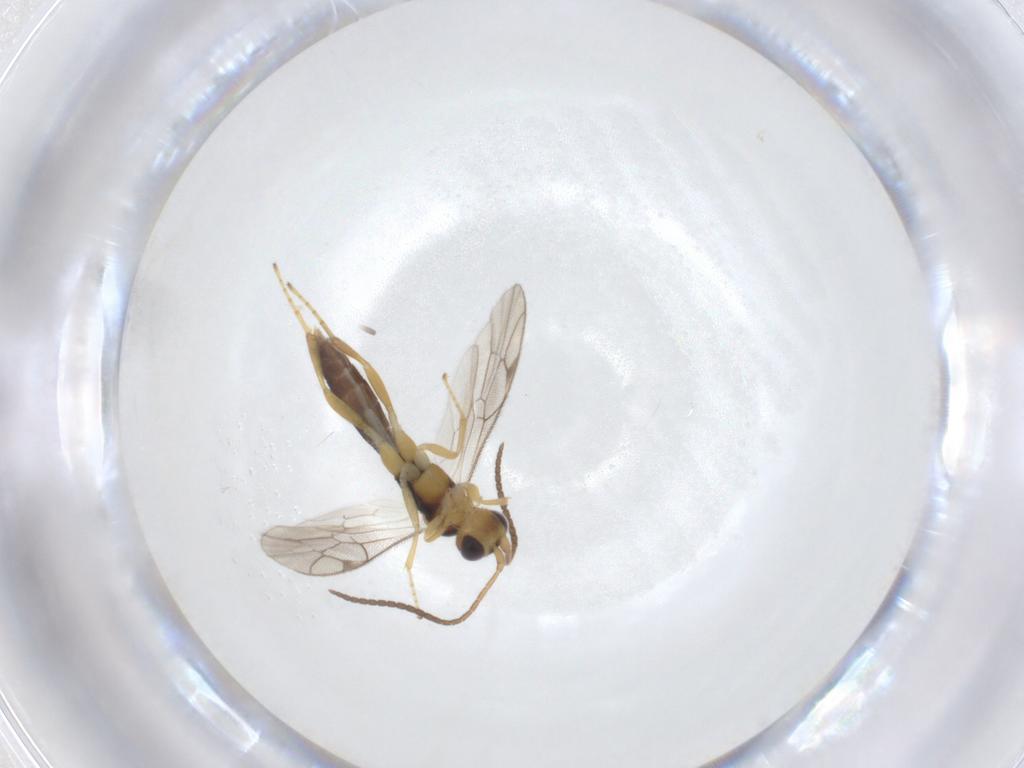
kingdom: Animalia
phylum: Arthropoda
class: Insecta
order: Hymenoptera
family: Ichneumonidae
